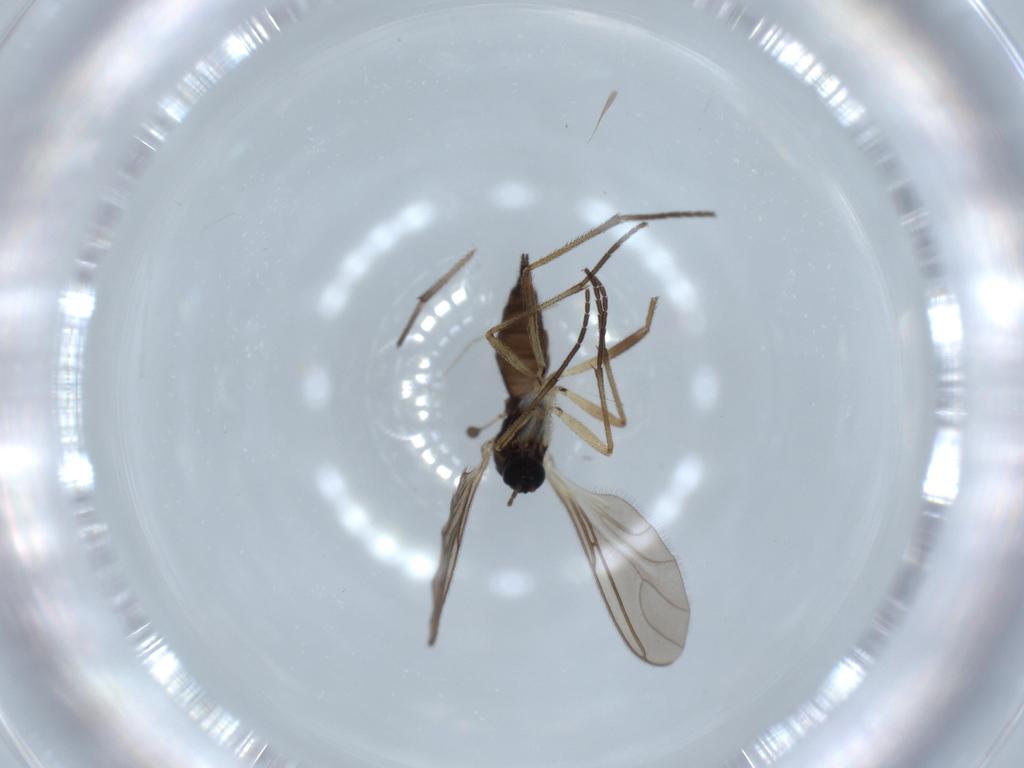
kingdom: Animalia
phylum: Arthropoda
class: Insecta
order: Diptera
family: Sciaridae
